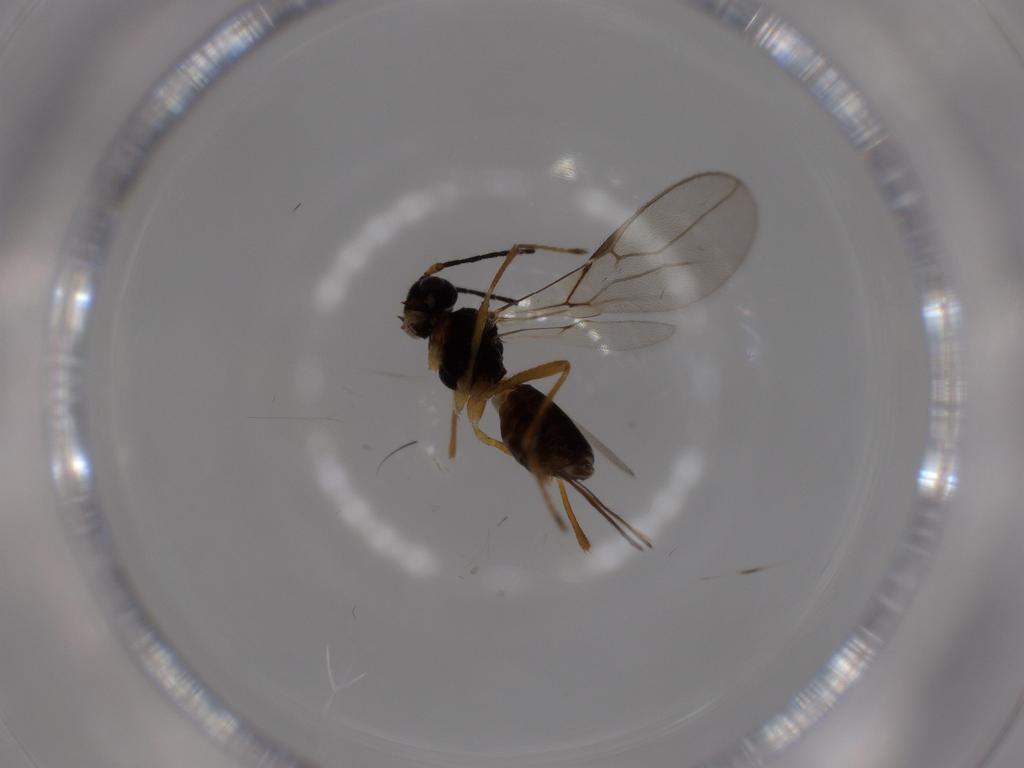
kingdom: Animalia
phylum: Arthropoda
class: Insecta
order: Hymenoptera
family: Braconidae
